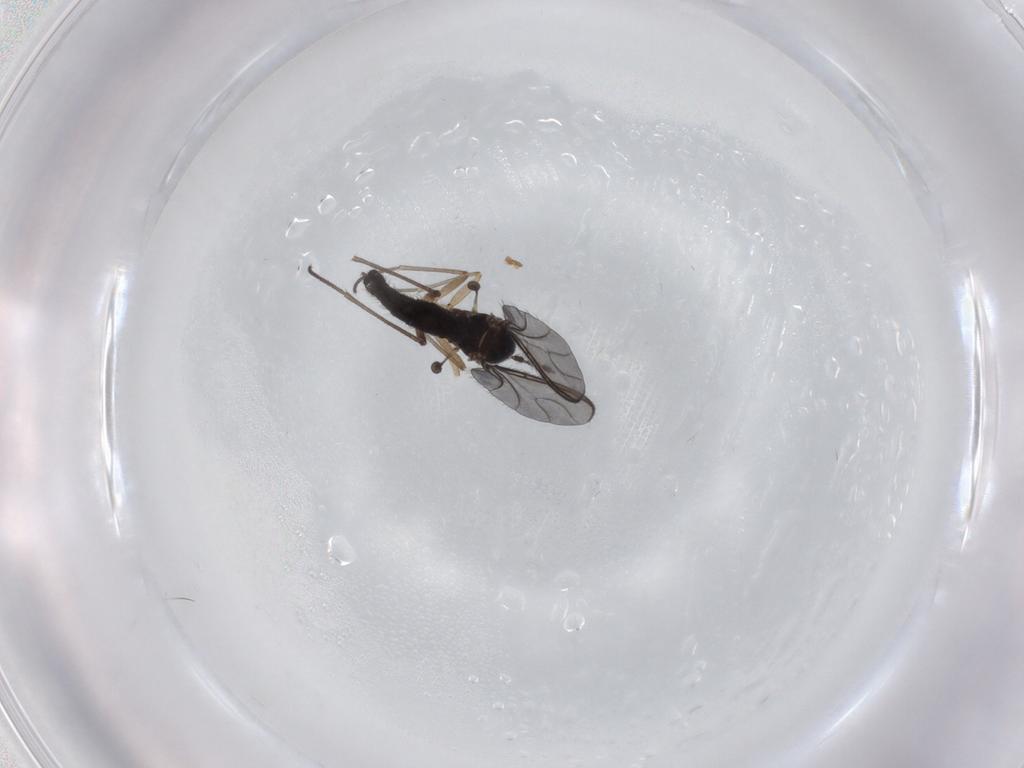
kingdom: Animalia
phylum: Arthropoda
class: Insecta
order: Diptera
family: Sciaridae
